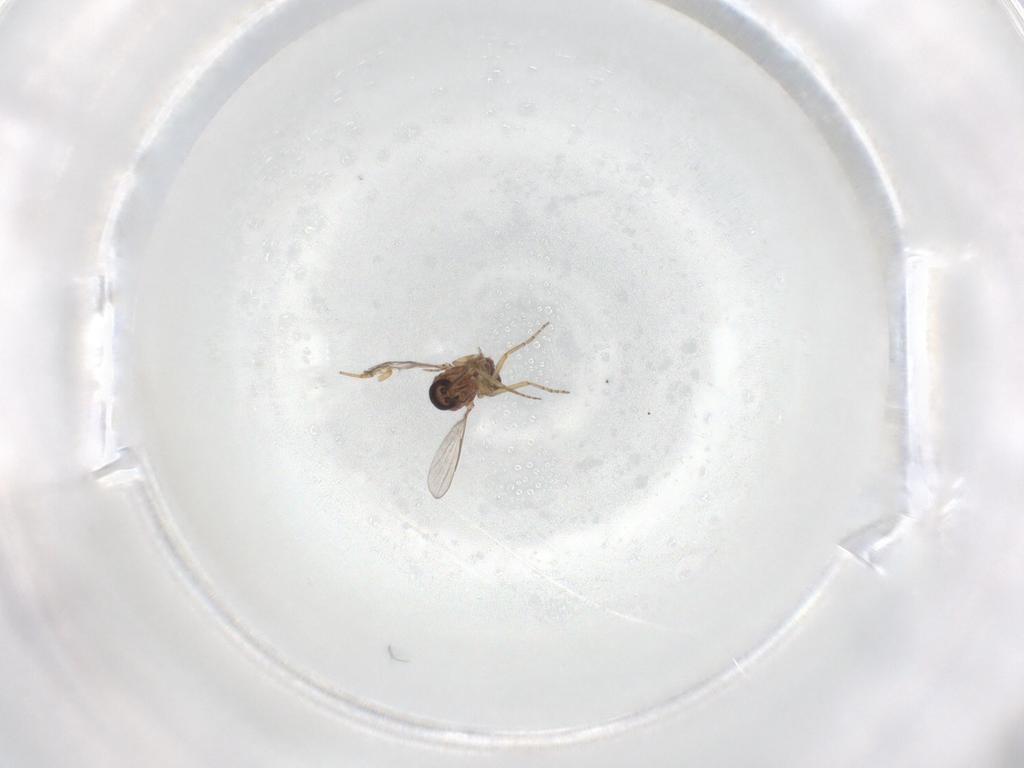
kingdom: Animalia
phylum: Arthropoda
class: Insecta
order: Diptera
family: Ceratopogonidae
